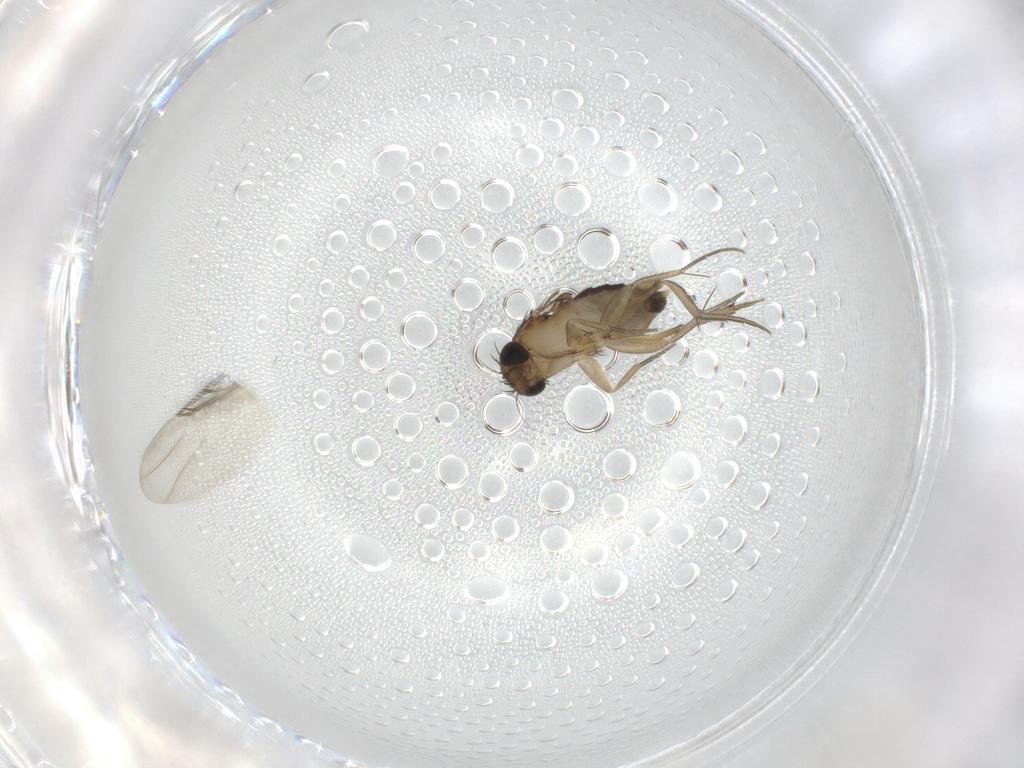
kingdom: Animalia
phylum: Arthropoda
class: Insecta
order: Diptera
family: Phoridae
